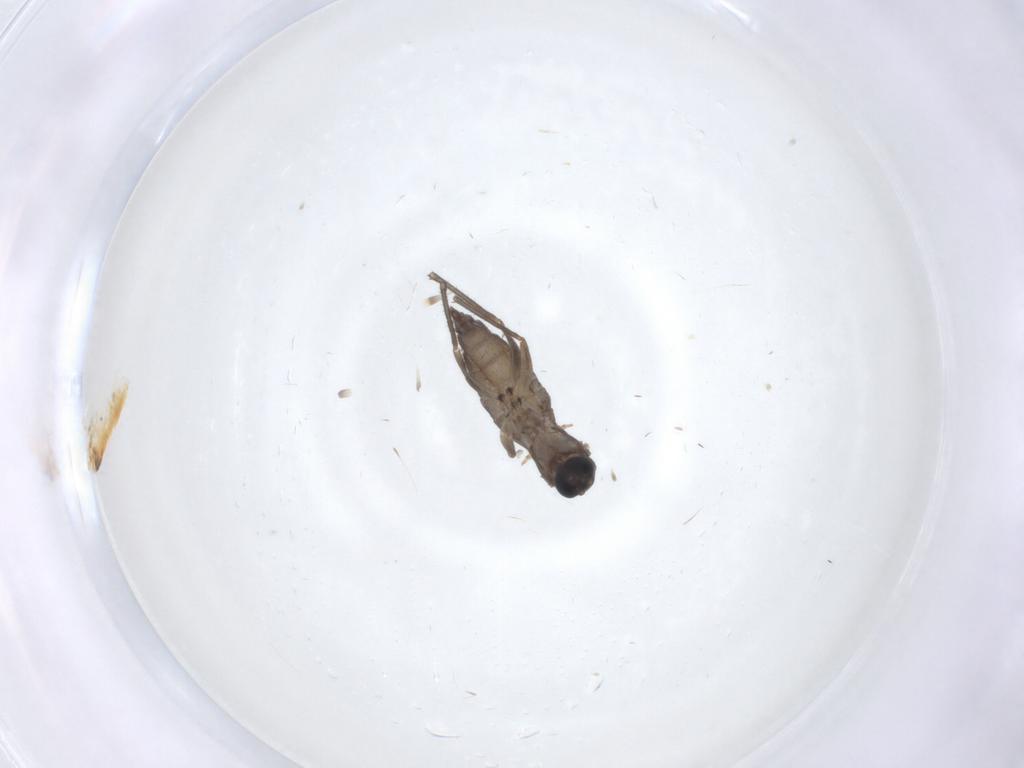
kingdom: Animalia
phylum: Arthropoda
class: Insecta
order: Diptera
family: Sciaridae
